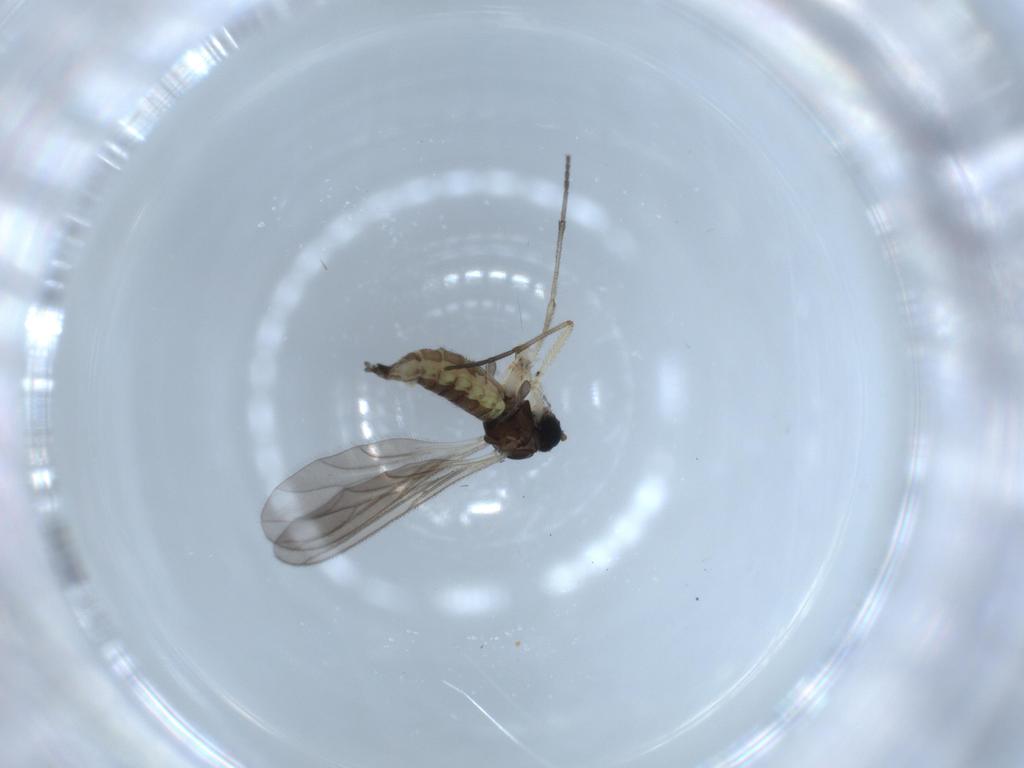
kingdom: Animalia
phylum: Arthropoda
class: Insecta
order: Diptera
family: Sciaridae
